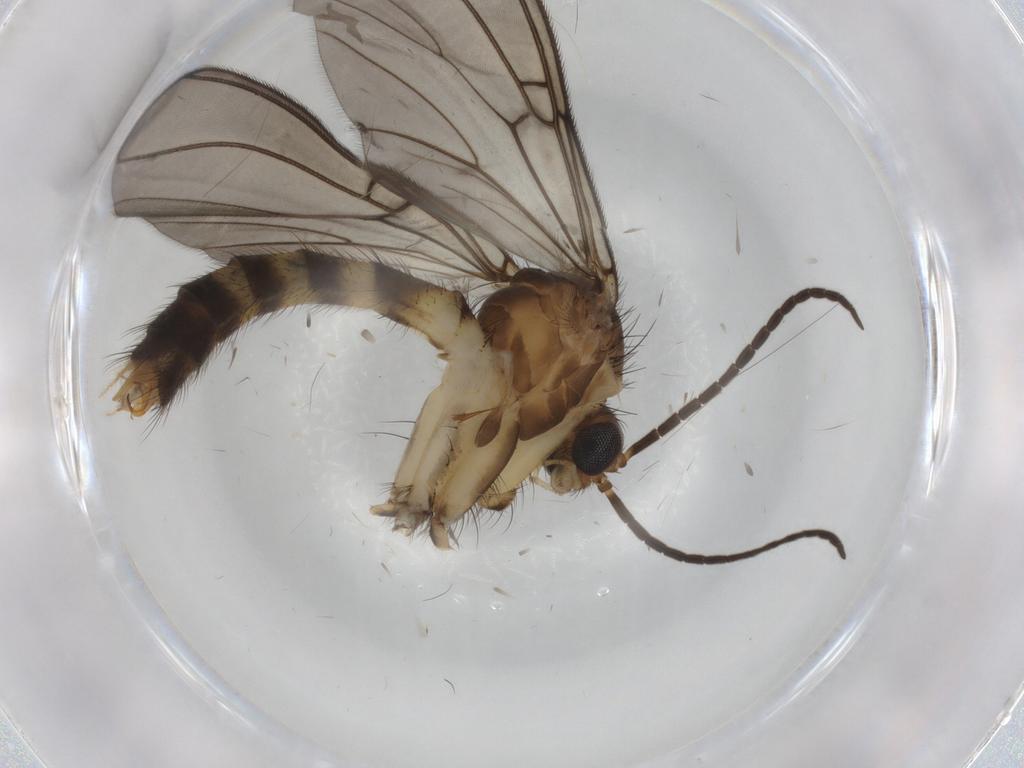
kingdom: Animalia
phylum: Arthropoda
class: Insecta
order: Diptera
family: Sciaridae
